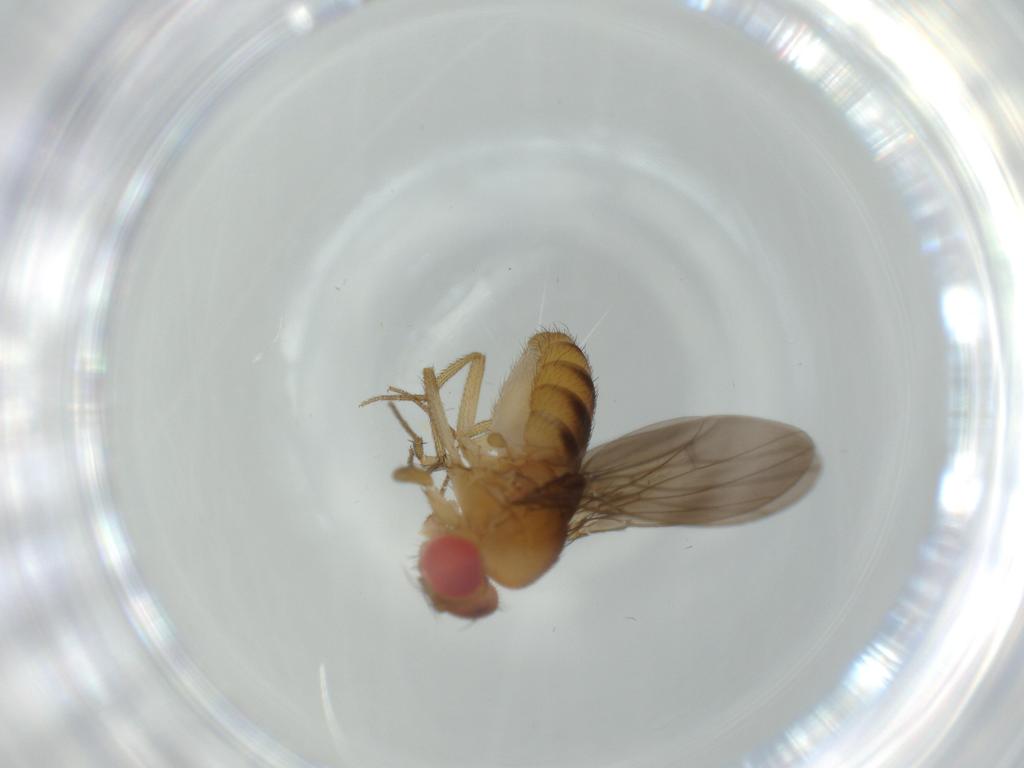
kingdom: Animalia
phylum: Arthropoda
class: Insecta
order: Diptera
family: Drosophilidae
